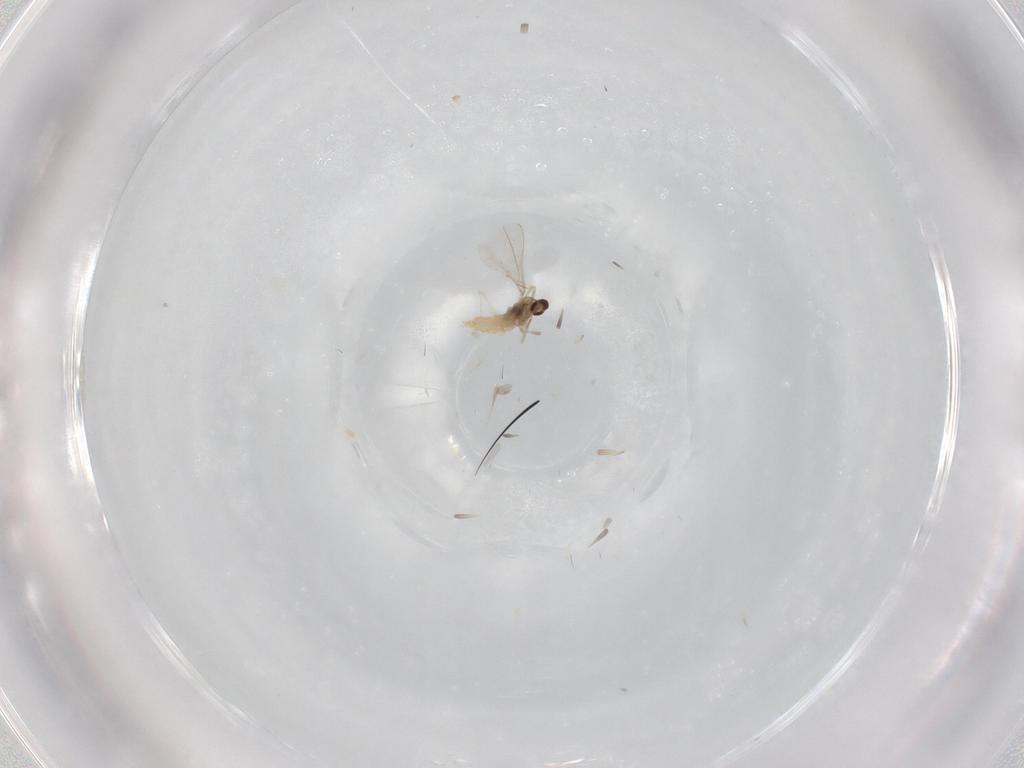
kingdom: Animalia
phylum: Arthropoda
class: Insecta
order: Diptera
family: Cecidomyiidae
